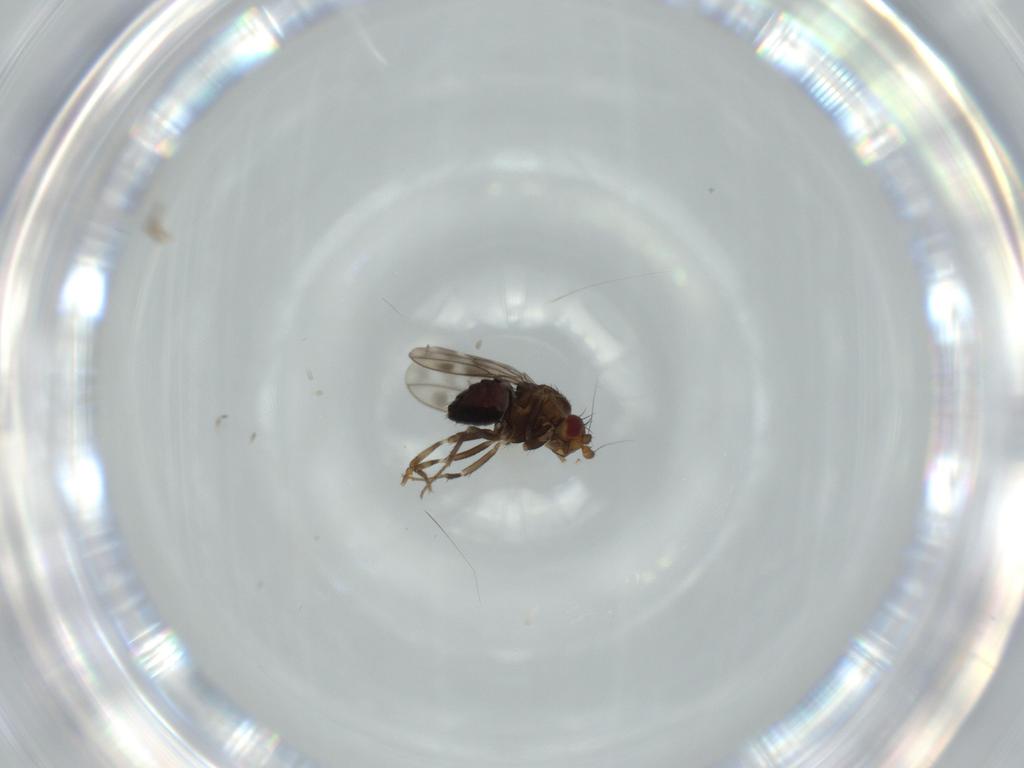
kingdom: Animalia
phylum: Arthropoda
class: Insecta
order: Diptera
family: Sphaeroceridae
